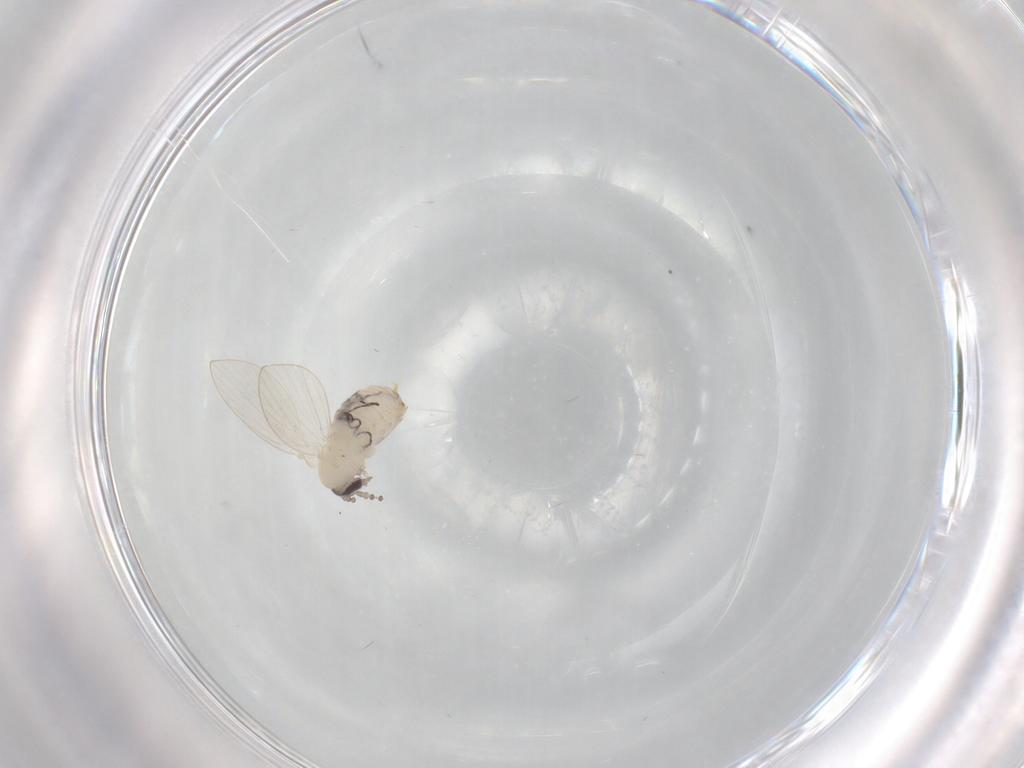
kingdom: Animalia
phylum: Arthropoda
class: Insecta
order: Diptera
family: Psychodidae
